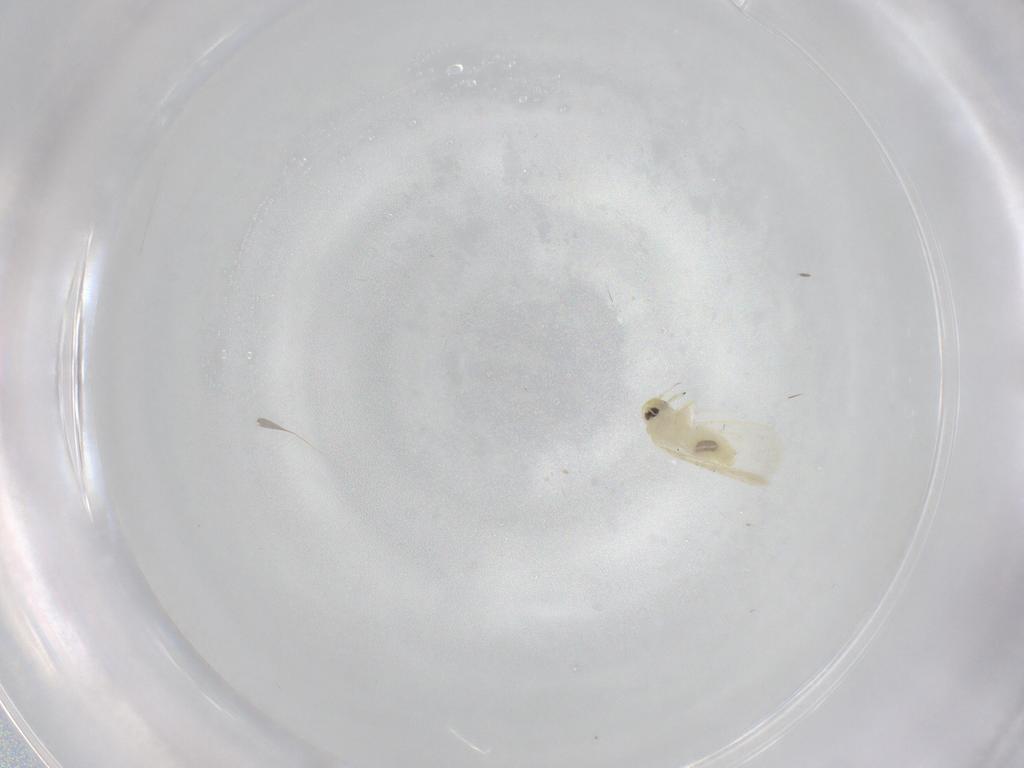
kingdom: Animalia
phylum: Arthropoda
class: Insecta
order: Hemiptera
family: Aleyrodidae
